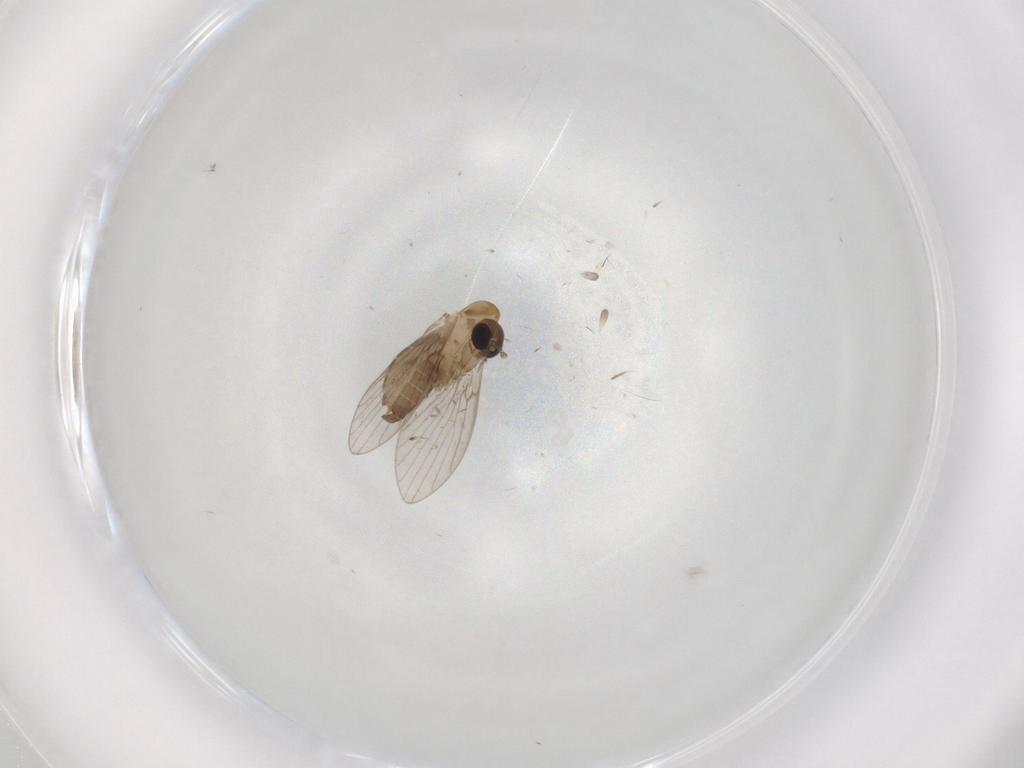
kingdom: Animalia
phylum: Arthropoda
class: Insecta
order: Diptera
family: Psychodidae
